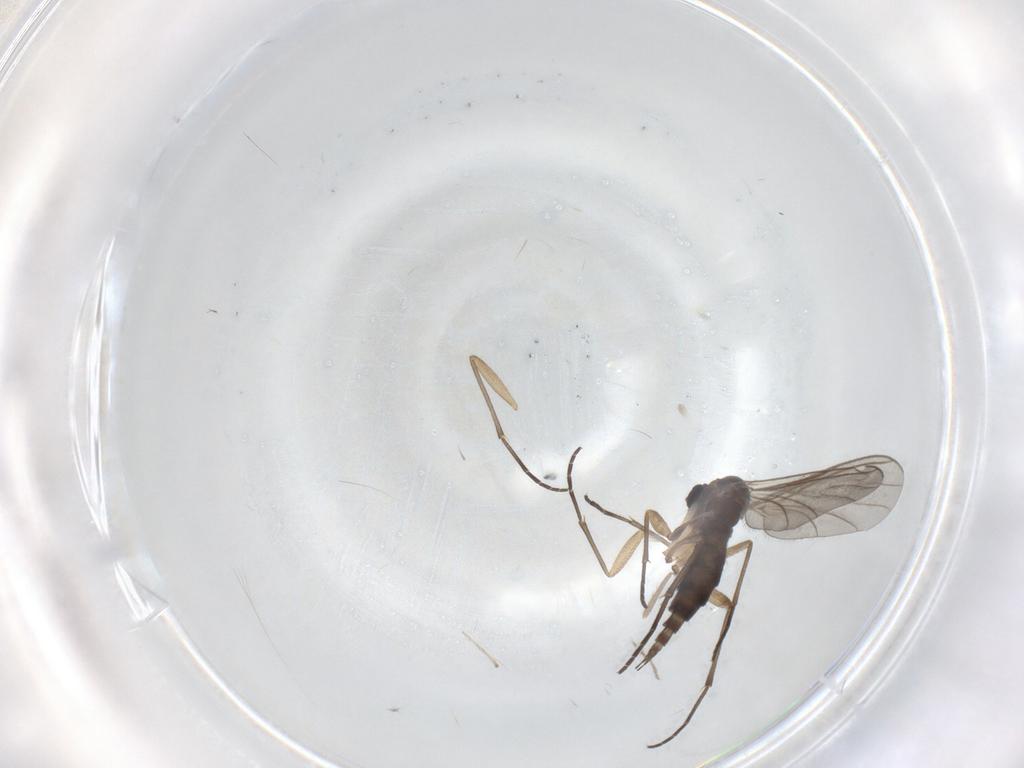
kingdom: Animalia
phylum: Arthropoda
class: Insecta
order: Diptera
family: Sciaridae
